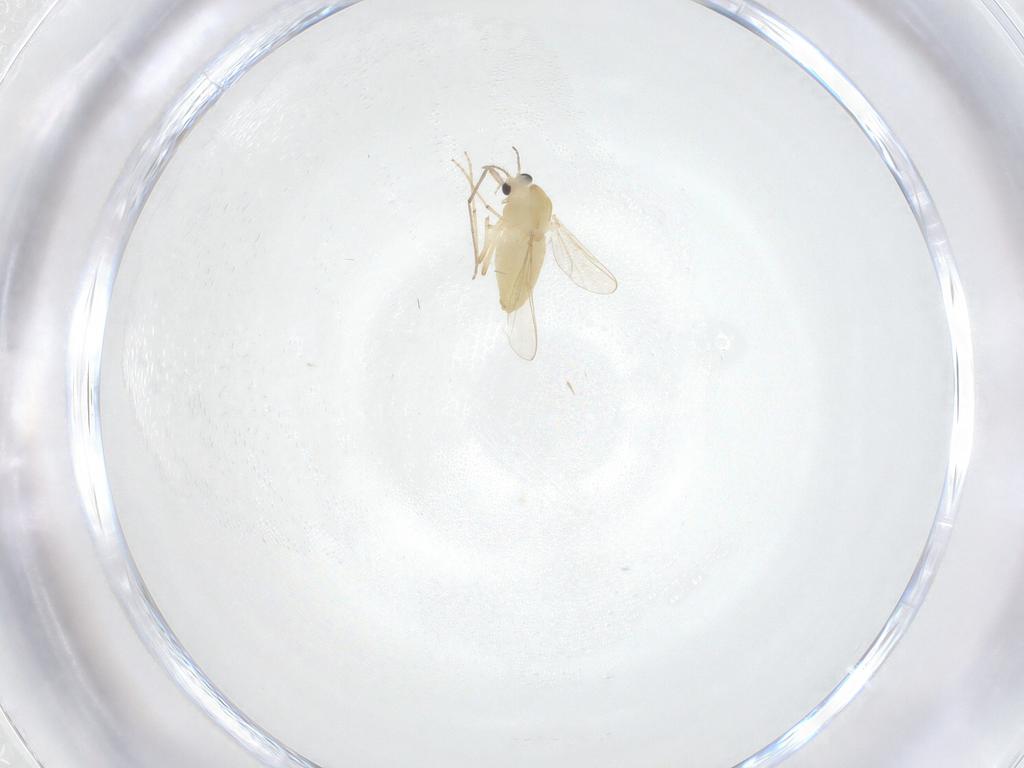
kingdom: Animalia
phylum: Arthropoda
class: Insecta
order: Diptera
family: Chironomidae
